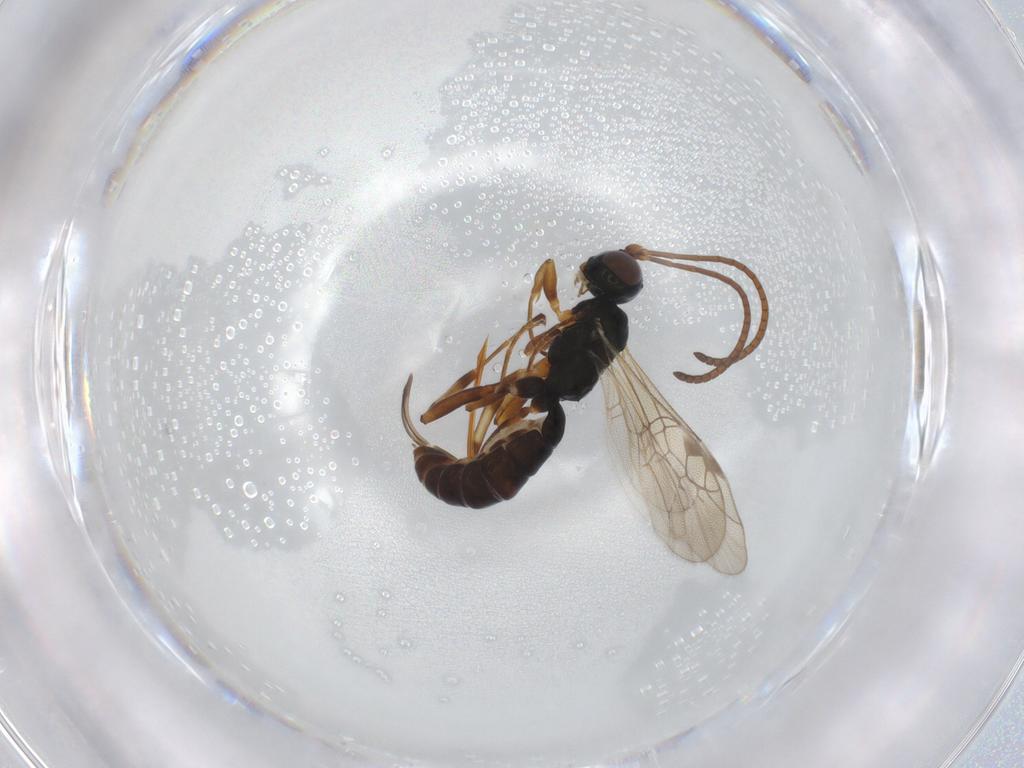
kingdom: Animalia
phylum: Arthropoda
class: Insecta
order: Hymenoptera
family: Ichneumonidae
